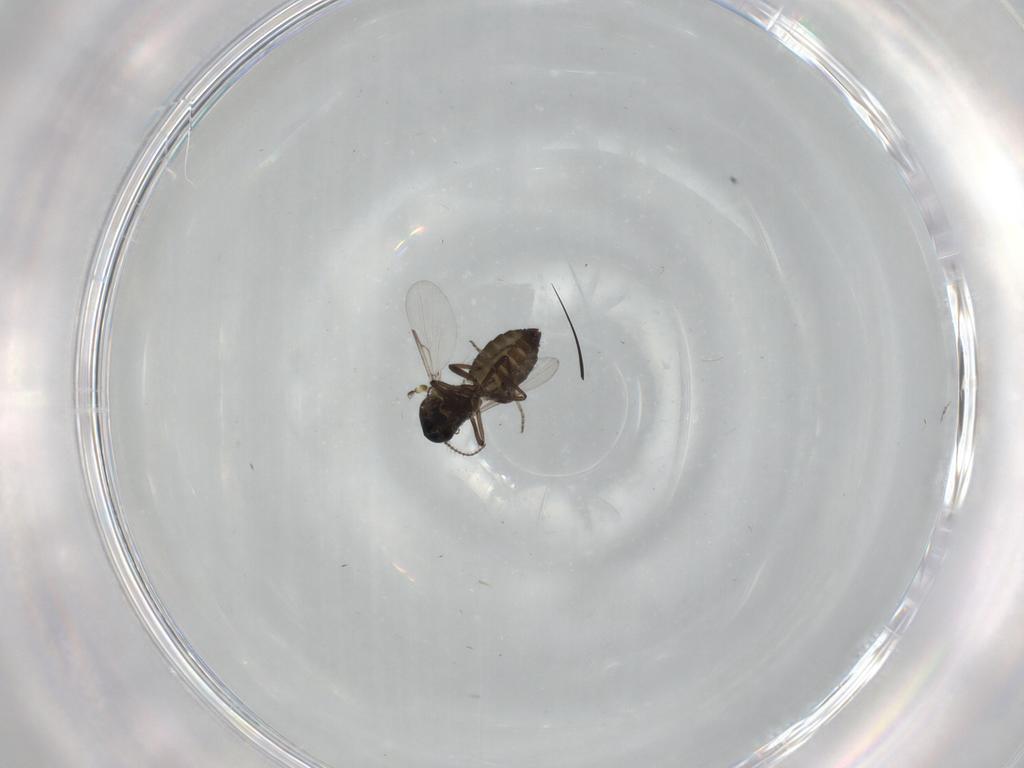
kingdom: Animalia
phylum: Arthropoda
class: Insecta
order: Diptera
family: Ceratopogonidae
